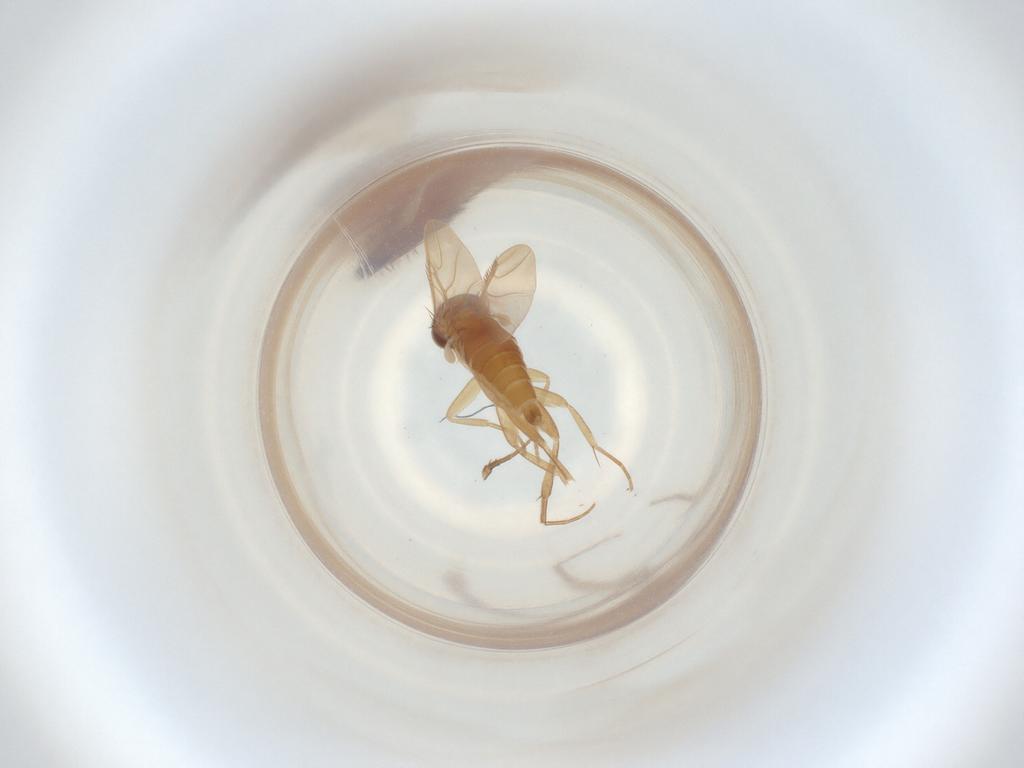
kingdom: Animalia
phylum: Arthropoda
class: Insecta
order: Diptera
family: Phoridae
